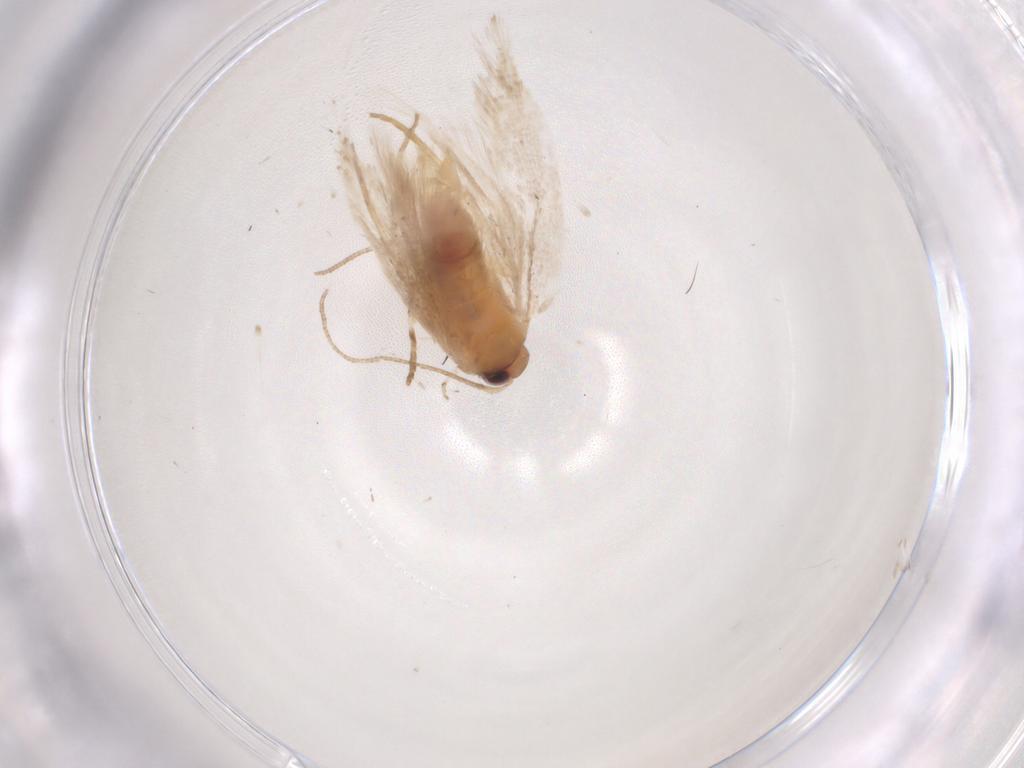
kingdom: Animalia
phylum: Arthropoda
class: Insecta
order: Lepidoptera
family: Gelechiidae
